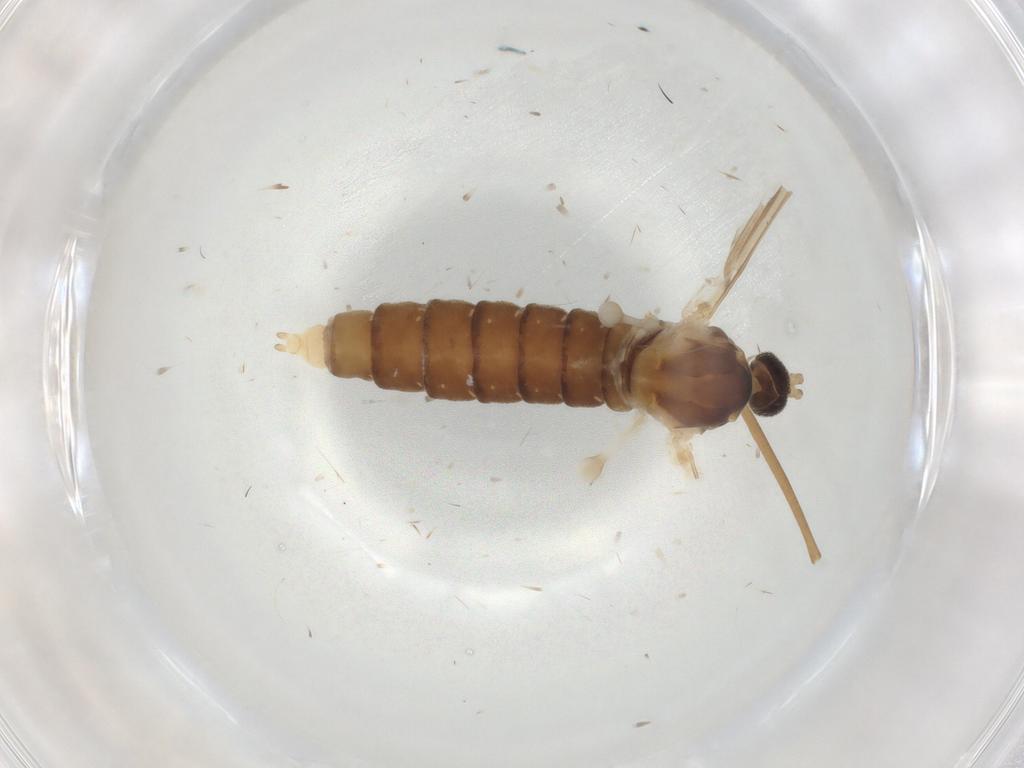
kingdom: Animalia
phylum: Arthropoda
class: Insecta
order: Diptera
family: Cecidomyiidae
